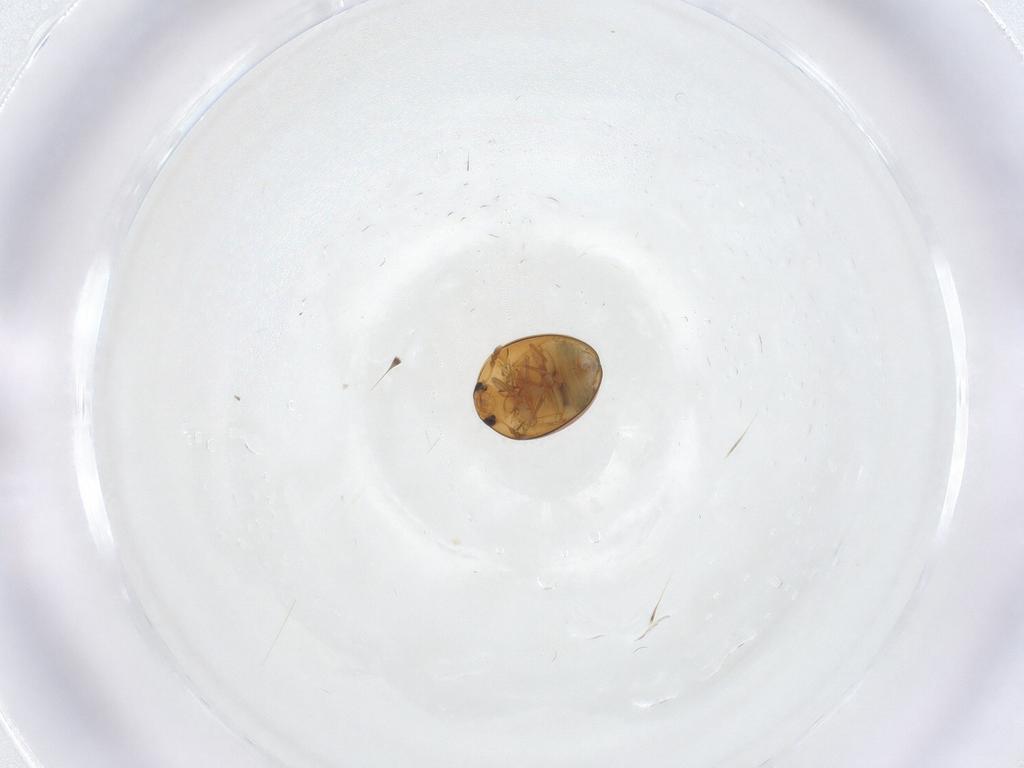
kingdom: Animalia
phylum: Arthropoda
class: Insecta
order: Coleoptera
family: Phalacridae
